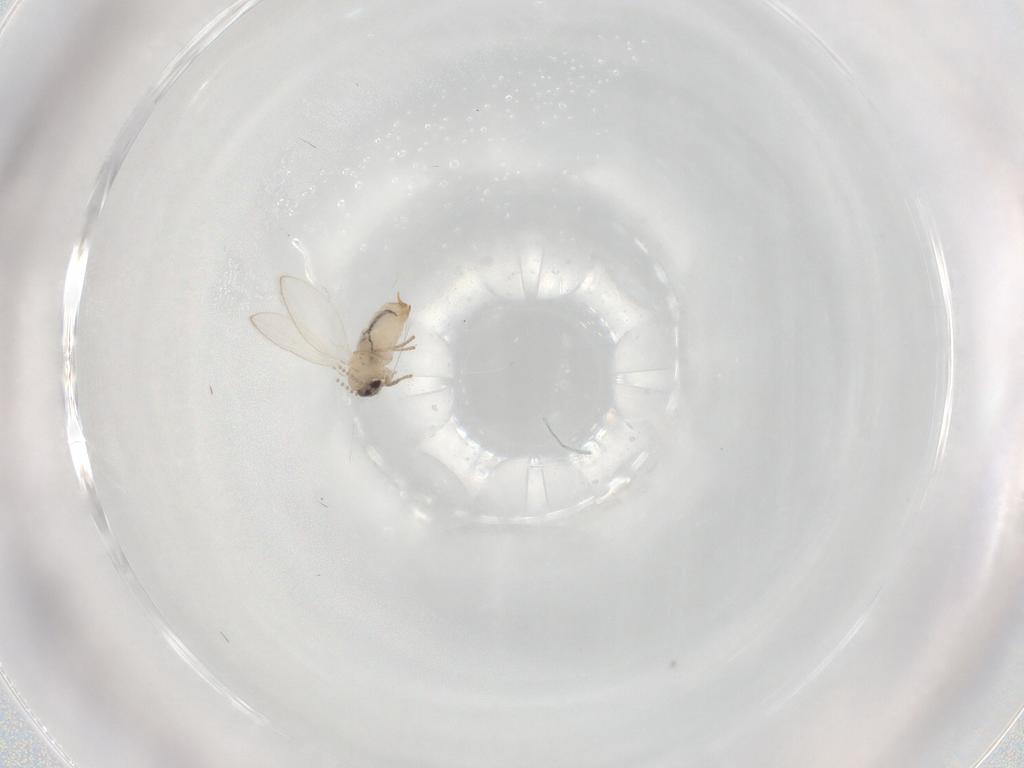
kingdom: Animalia
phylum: Arthropoda
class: Insecta
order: Diptera
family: Psychodidae
